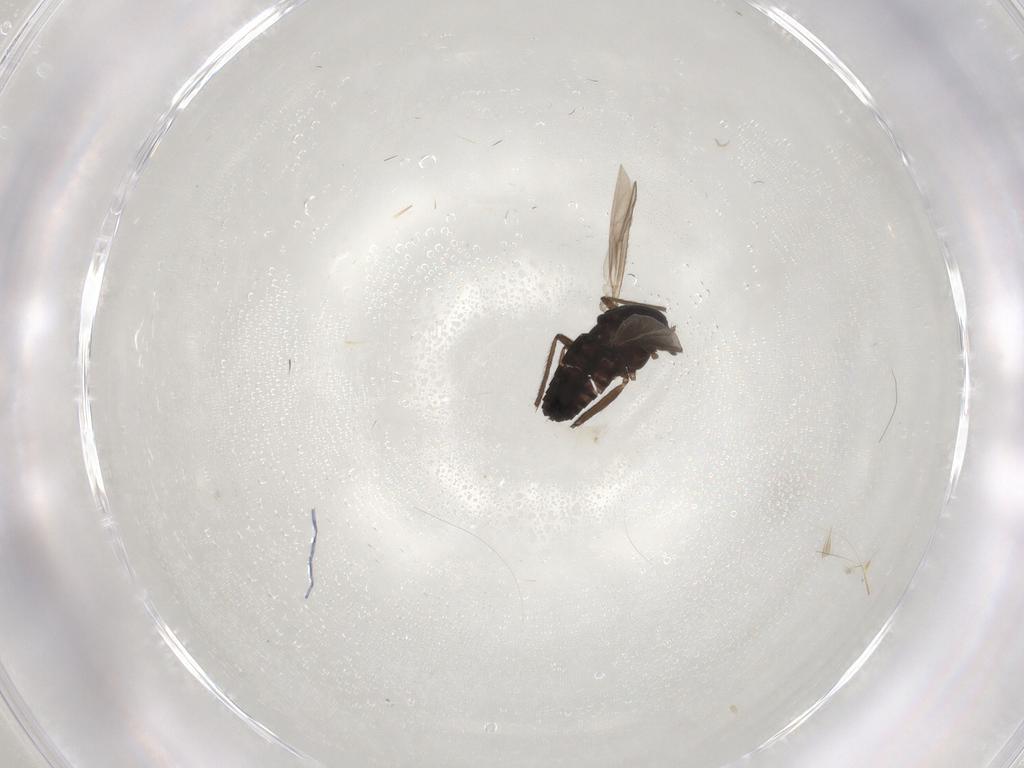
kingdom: Animalia
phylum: Arthropoda
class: Insecta
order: Diptera
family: Chironomidae
